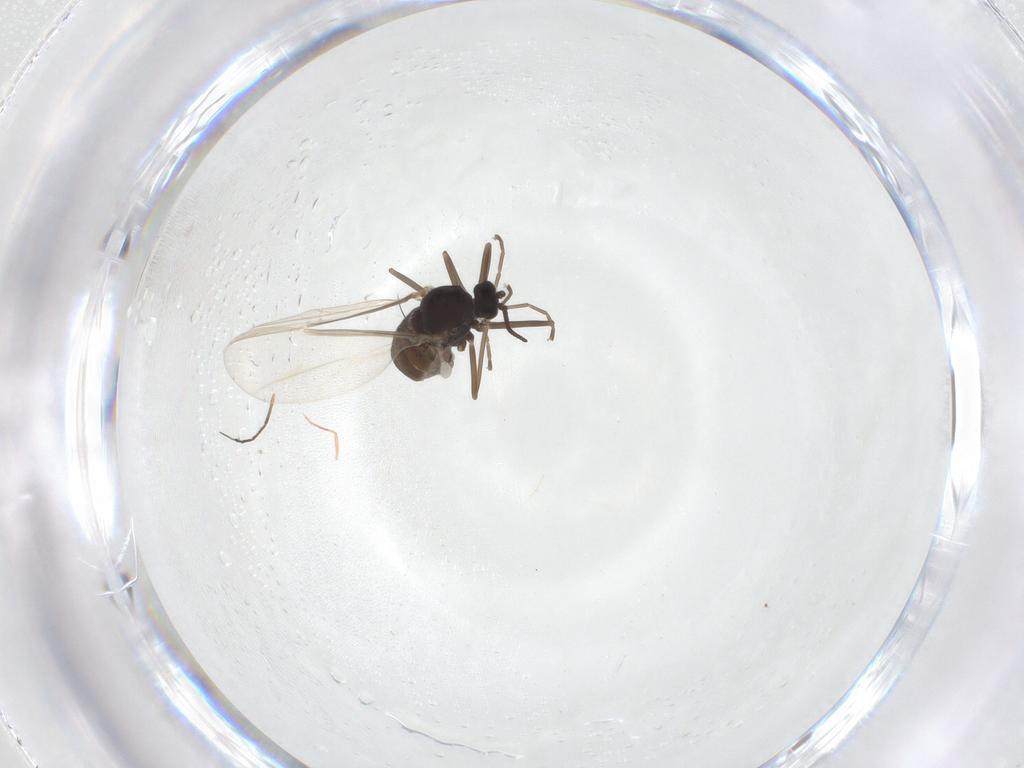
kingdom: Animalia
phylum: Arthropoda
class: Insecta
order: Diptera
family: Cecidomyiidae
